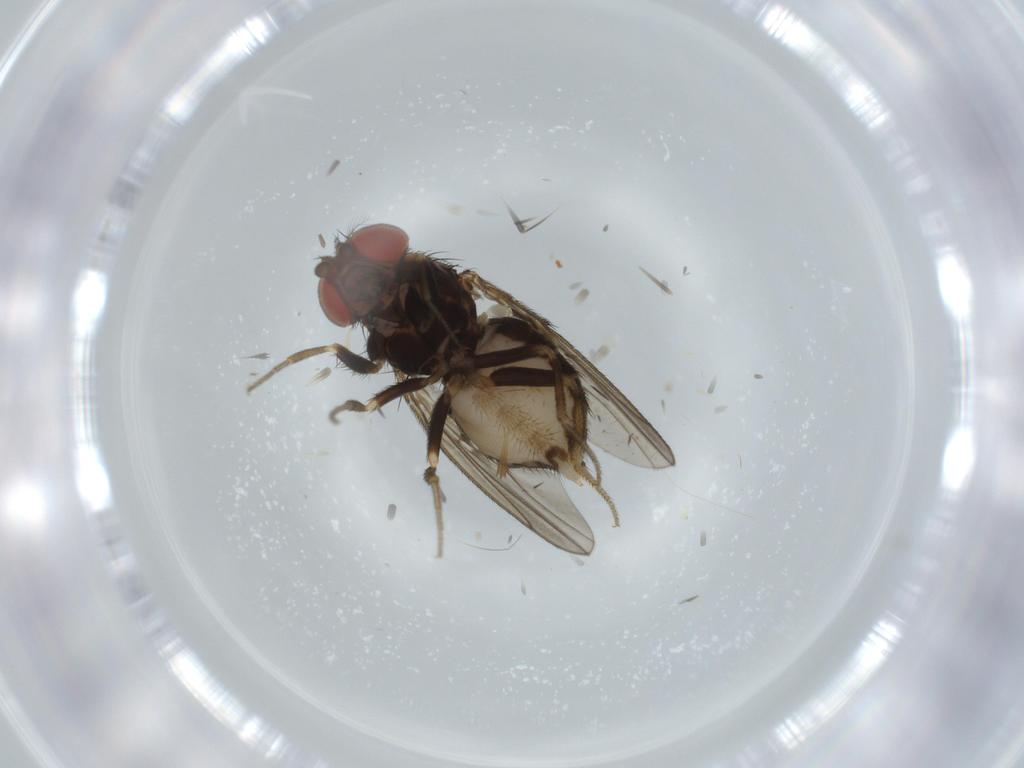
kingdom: Animalia
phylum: Arthropoda
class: Insecta
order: Diptera
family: Drosophilidae
